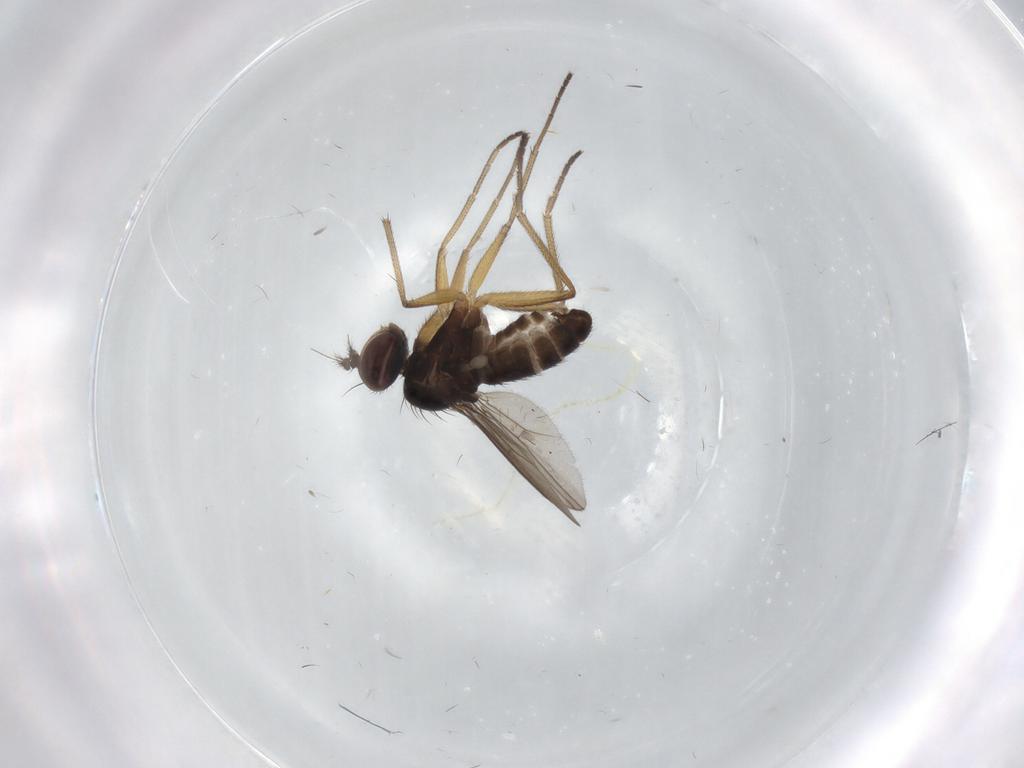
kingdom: Animalia
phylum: Arthropoda
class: Insecta
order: Diptera
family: Dolichopodidae
